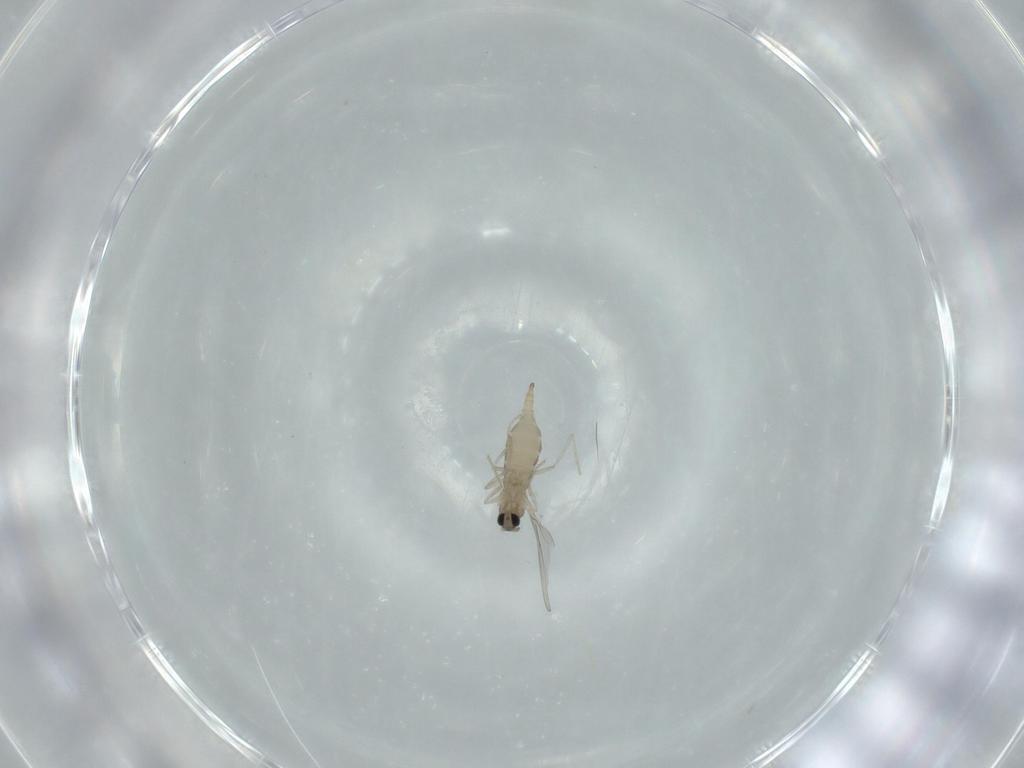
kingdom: Animalia
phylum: Arthropoda
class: Insecta
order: Diptera
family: Cecidomyiidae
